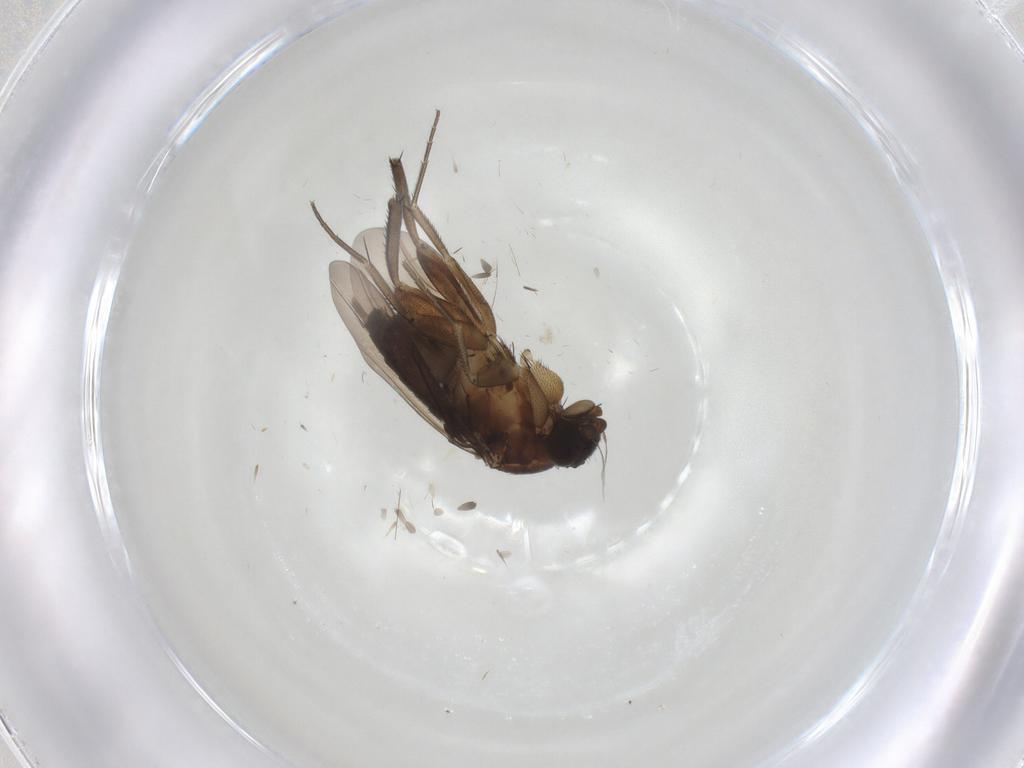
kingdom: Animalia
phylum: Arthropoda
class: Insecta
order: Diptera
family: Phoridae
